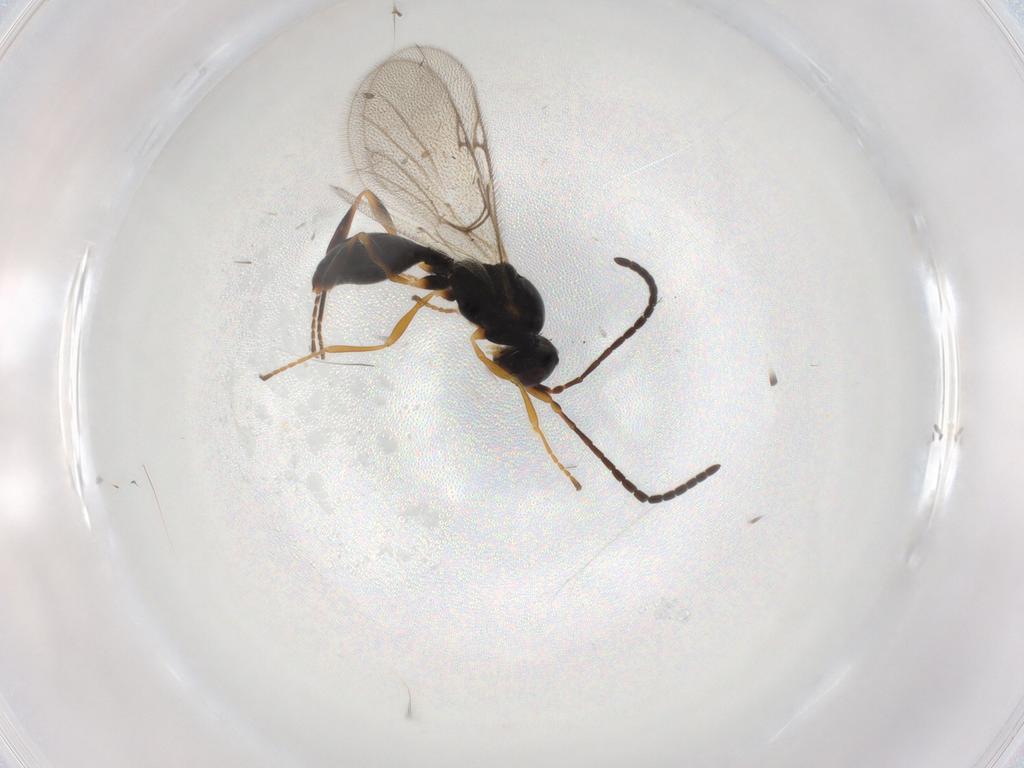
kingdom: Animalia
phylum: Arthropoda
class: Insecta
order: Hymenoptera
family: Diapriidae
